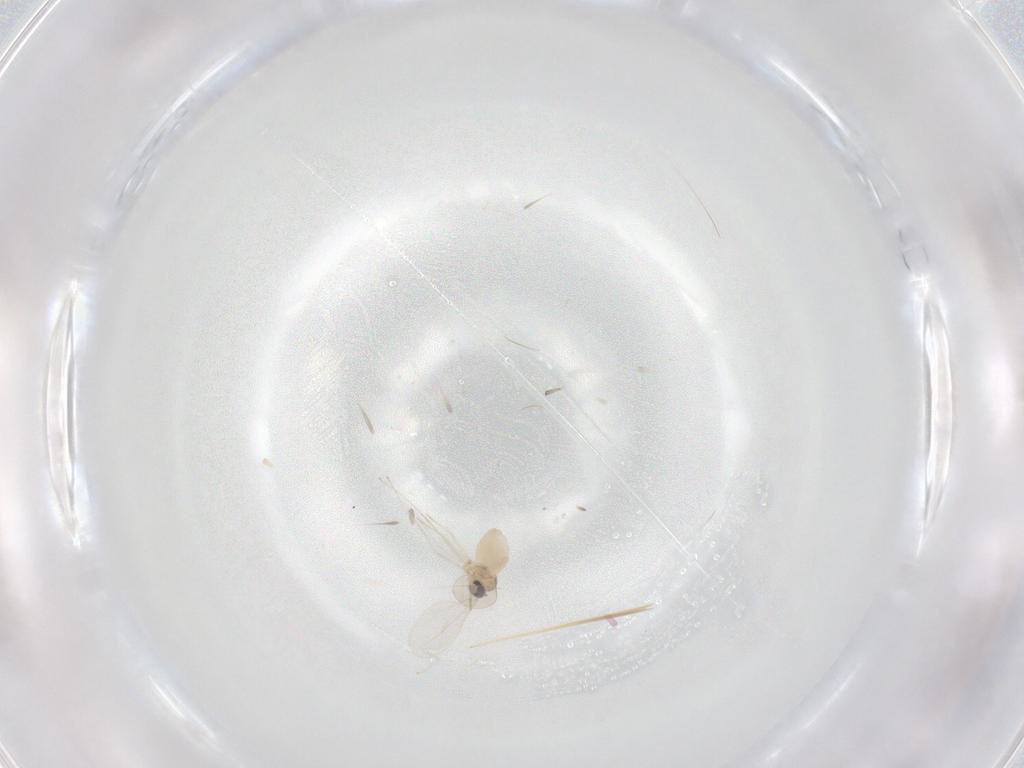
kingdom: Animalia
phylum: Arthropoda
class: Insecta
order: Diptera
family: Cecidomyiidae
